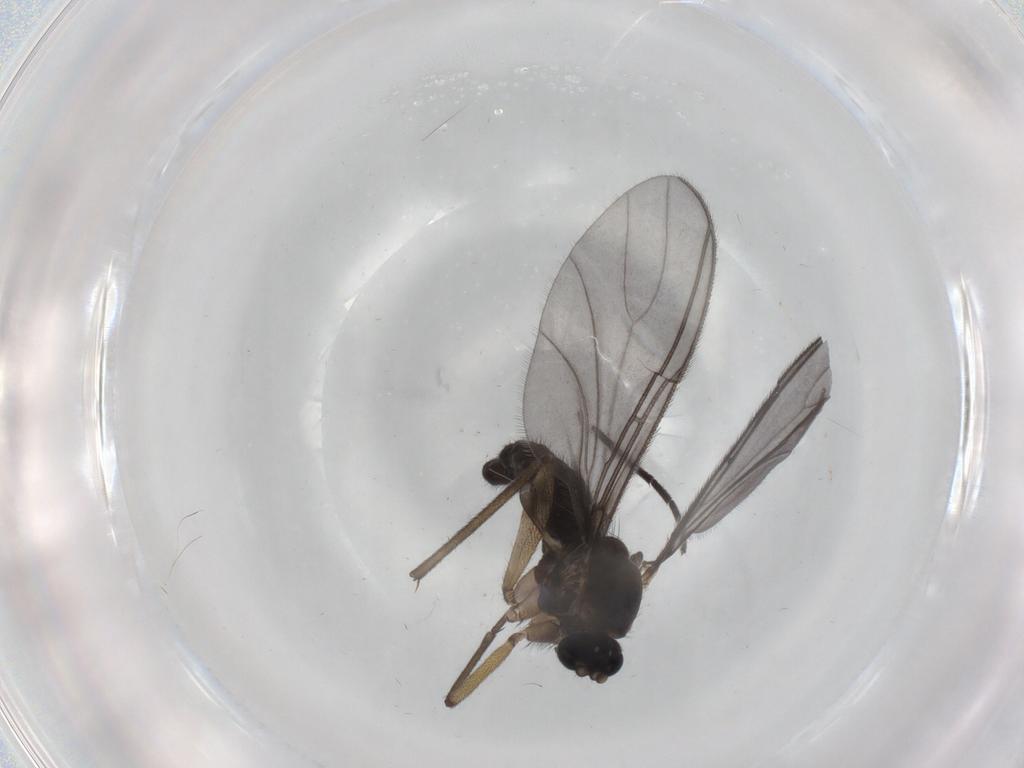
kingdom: Animalia
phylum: Arthropoda
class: Insecta
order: Diptera
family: Sciaridae
